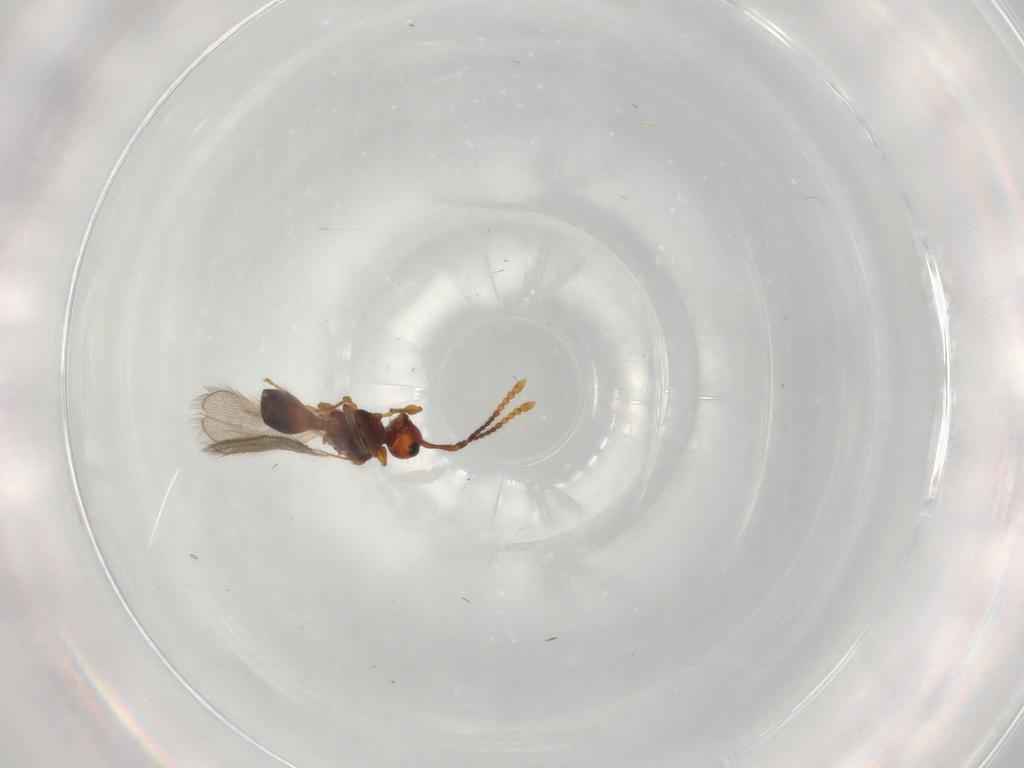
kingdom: Animalia
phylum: Arthropoda
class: Insecta
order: Hymenoptera
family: Diapriidae
